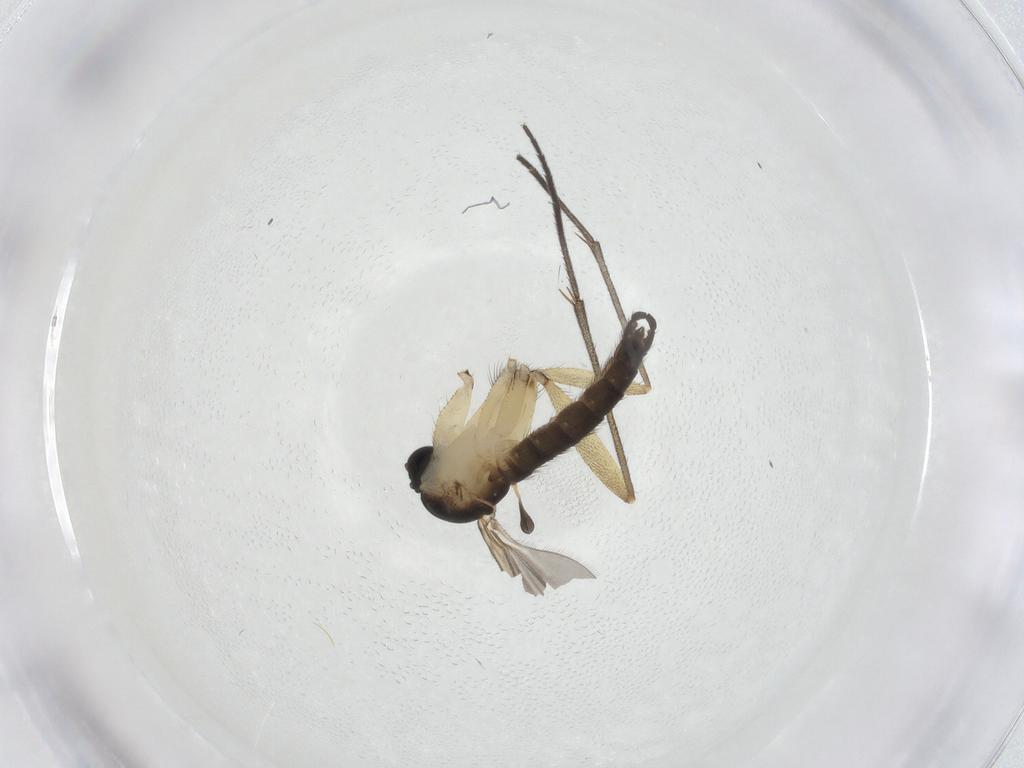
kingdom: Animalia
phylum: Arthropoda
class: Insecta
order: Diptera
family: Sciaridae
